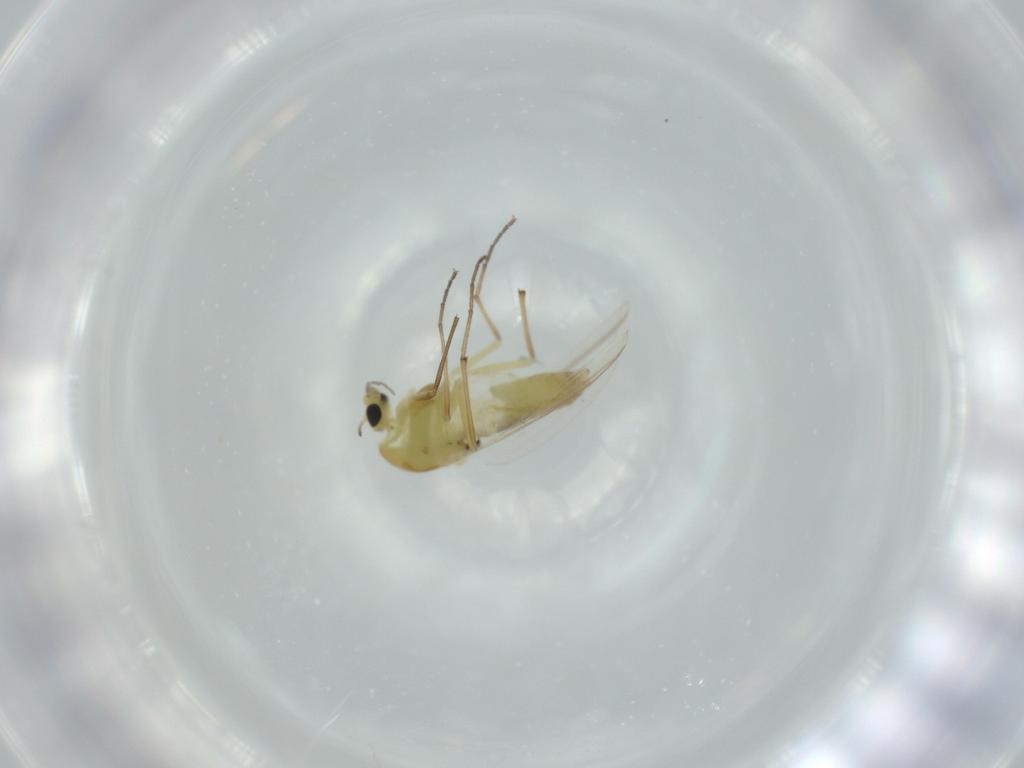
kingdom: Animalia
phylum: Arthropoda
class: Insecta
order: Diptera
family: Chironomidae
